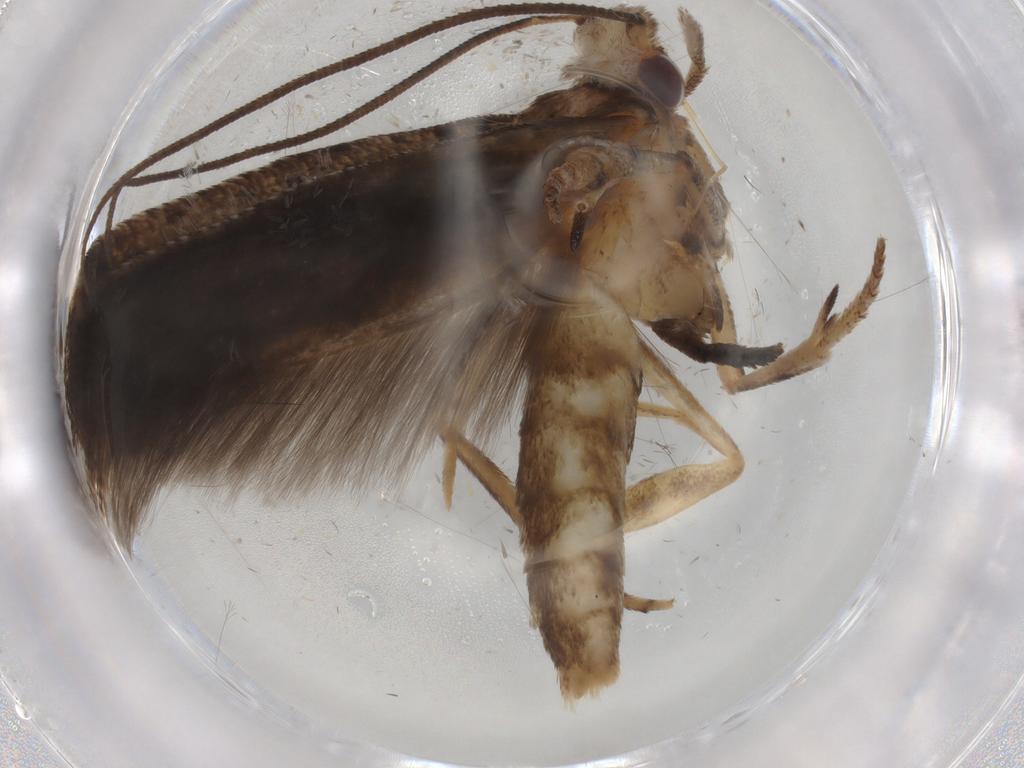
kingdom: Animalia
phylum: Arthropoda
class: Insecta
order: Lepidoptera
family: Yponomeutidae
